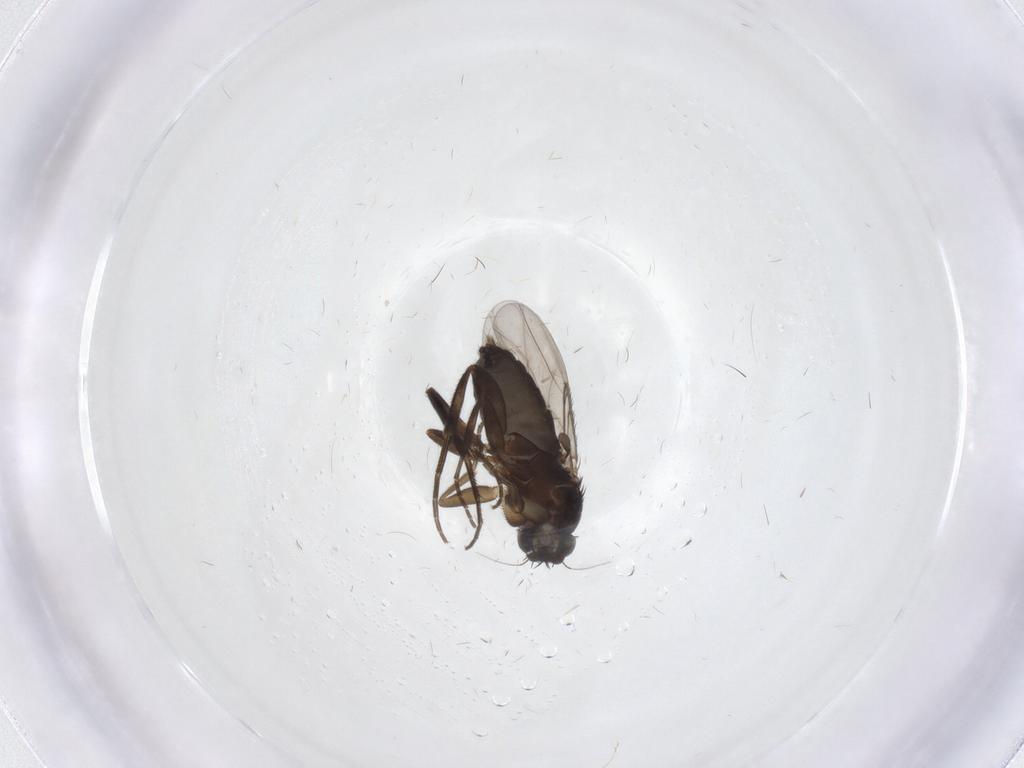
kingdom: Animalia
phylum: Arthropoda
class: Insecta
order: Diptera
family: Phoridae
